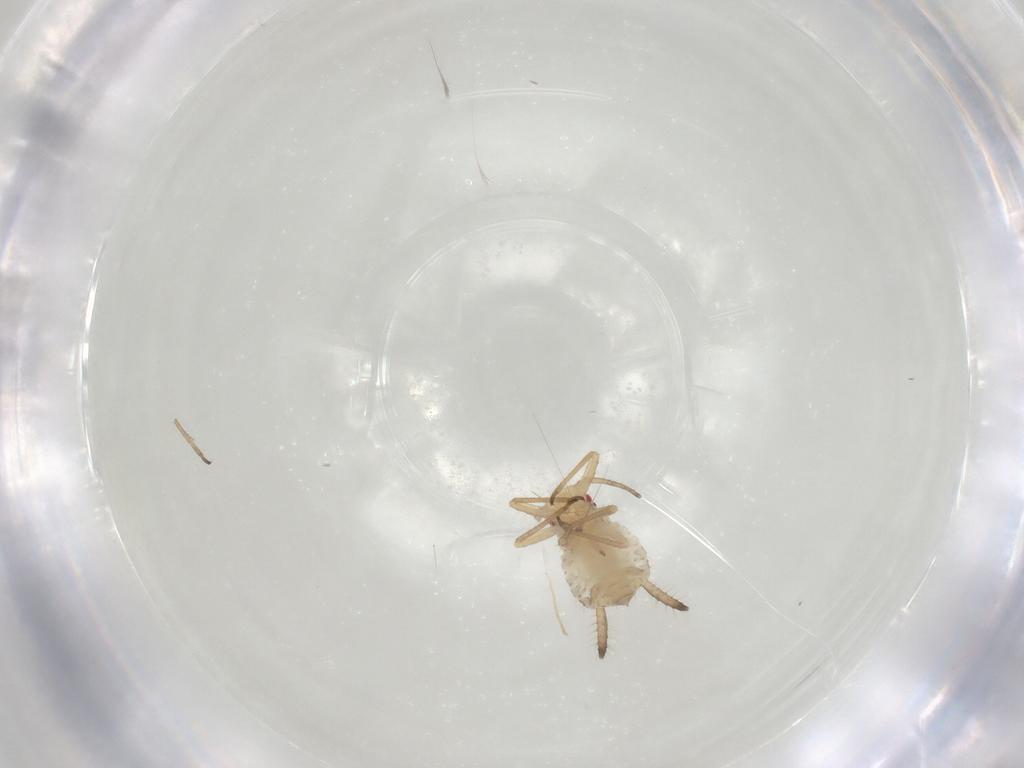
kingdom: Animalia
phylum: Arthropoda
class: Insecta
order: Hemiptera
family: Aphididae
